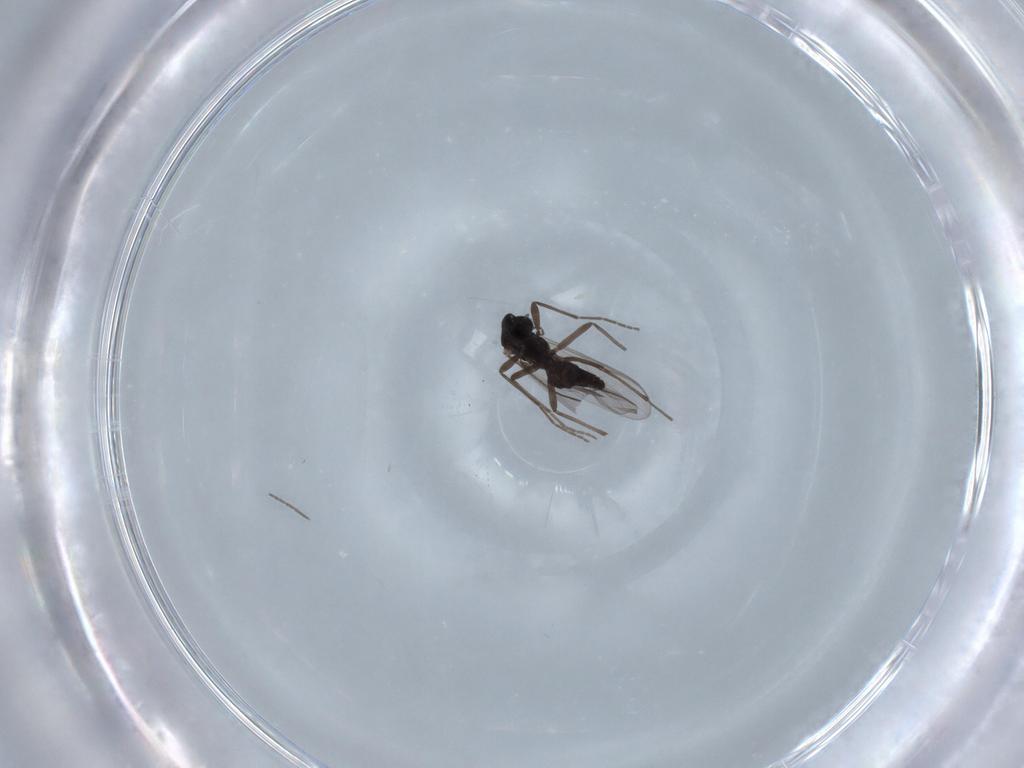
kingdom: Animalia
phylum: Arthropoda
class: Insecta
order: Diptera
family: Chironomidae
